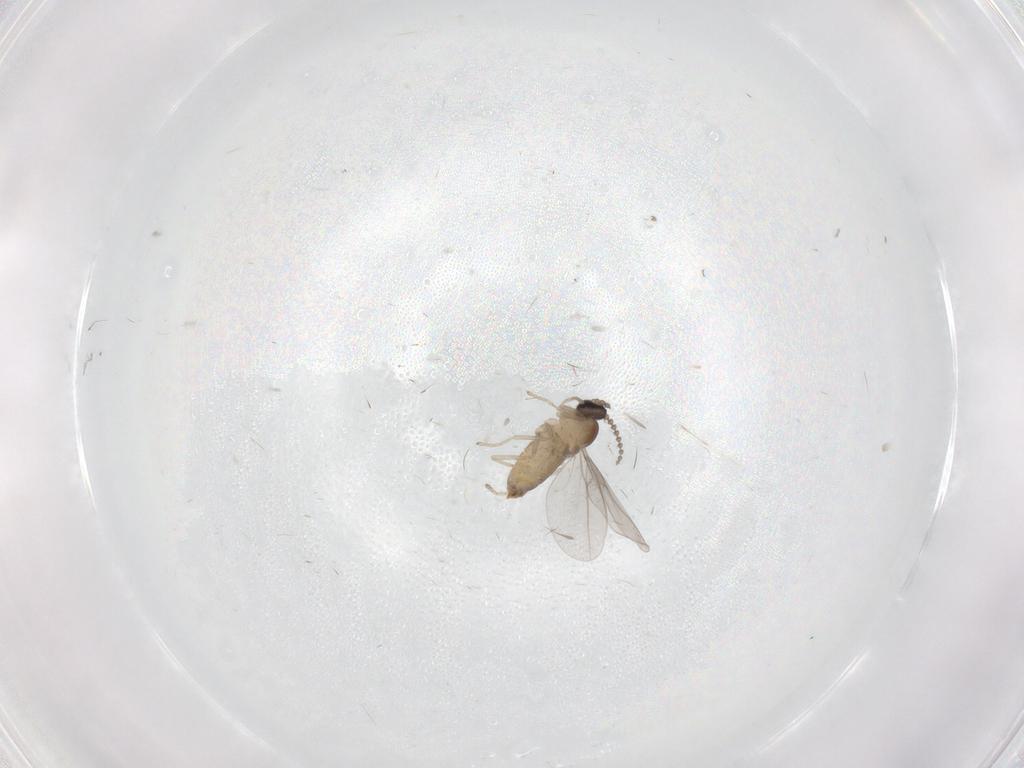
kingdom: Animalia
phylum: Arthropoda
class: Insecta
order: Diptera
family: Cecidomyiidae
